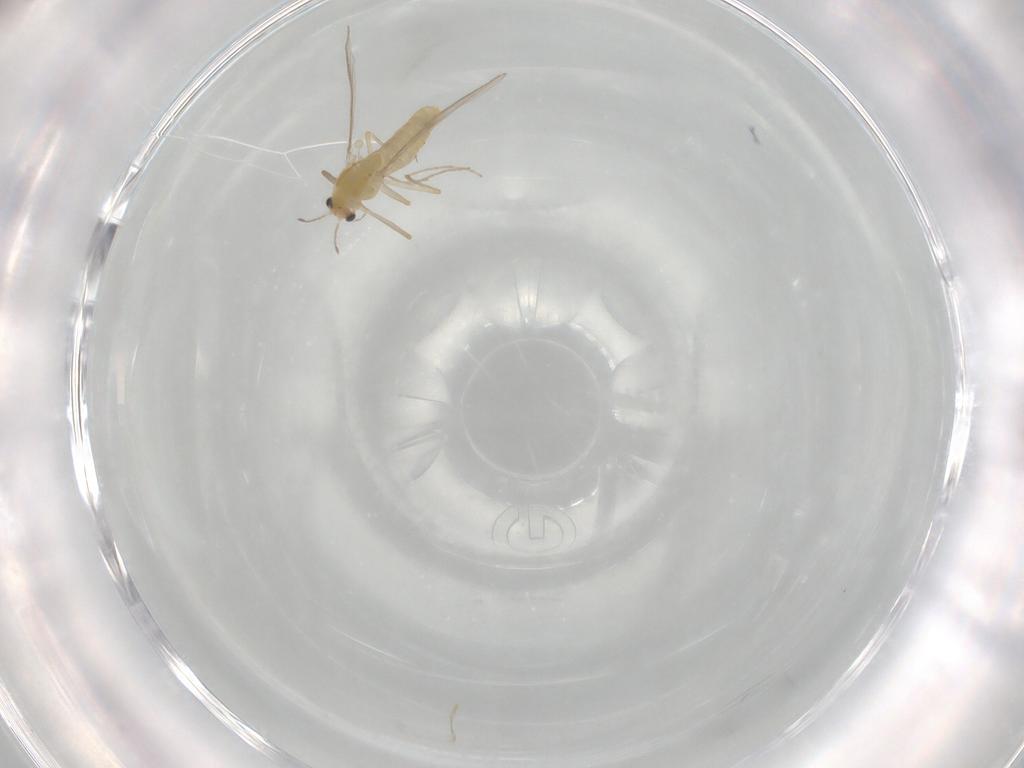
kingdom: Animalia
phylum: Arthropoda
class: Insecta
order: Diptera
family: Chironomidae
